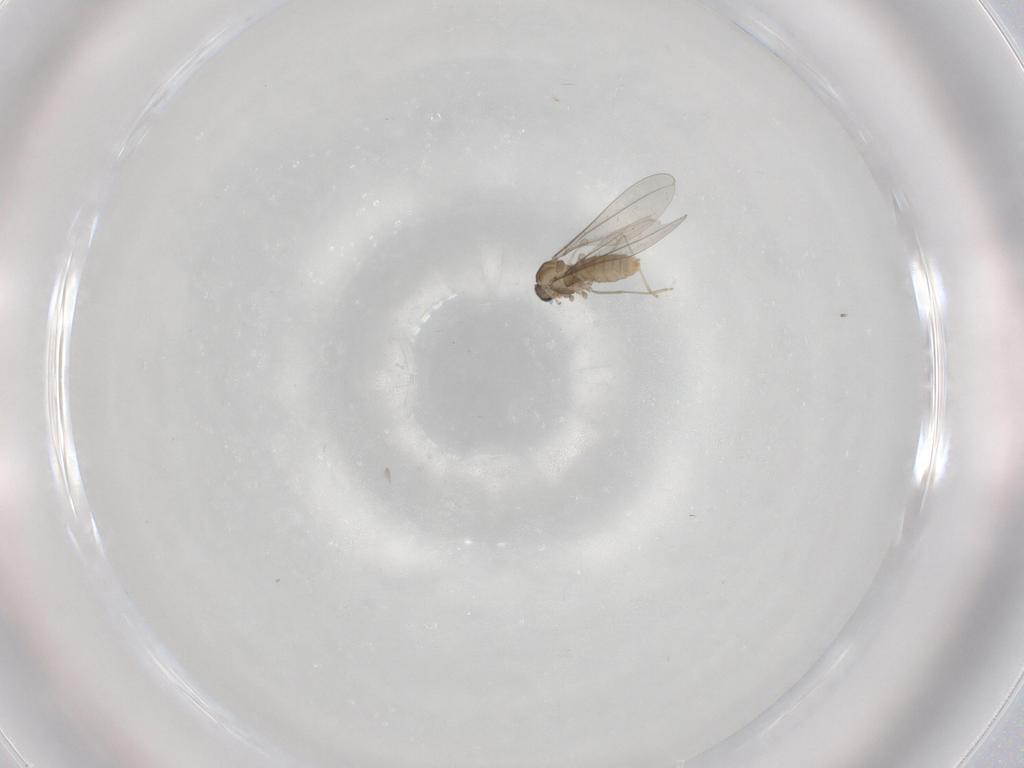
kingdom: Animalia
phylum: Arthropoda
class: Insecta
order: Diptera
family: Cecidomyiidae
